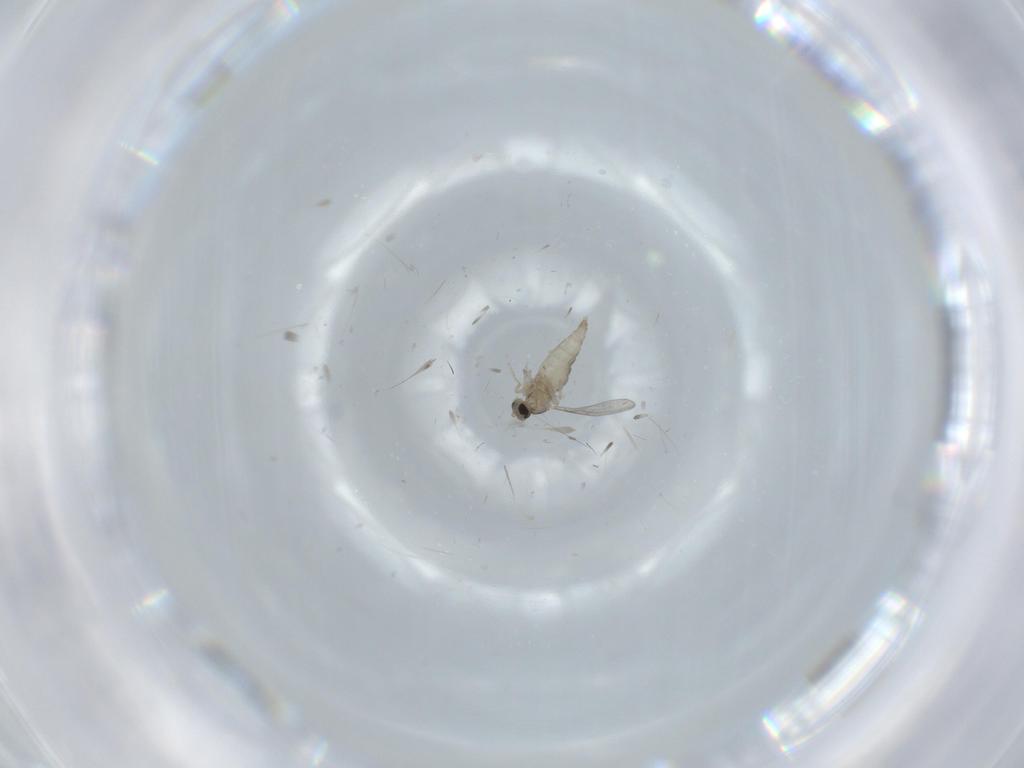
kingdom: Animalia
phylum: Arthropoda
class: Insecta
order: Diptera
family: Cecidomyiidae
